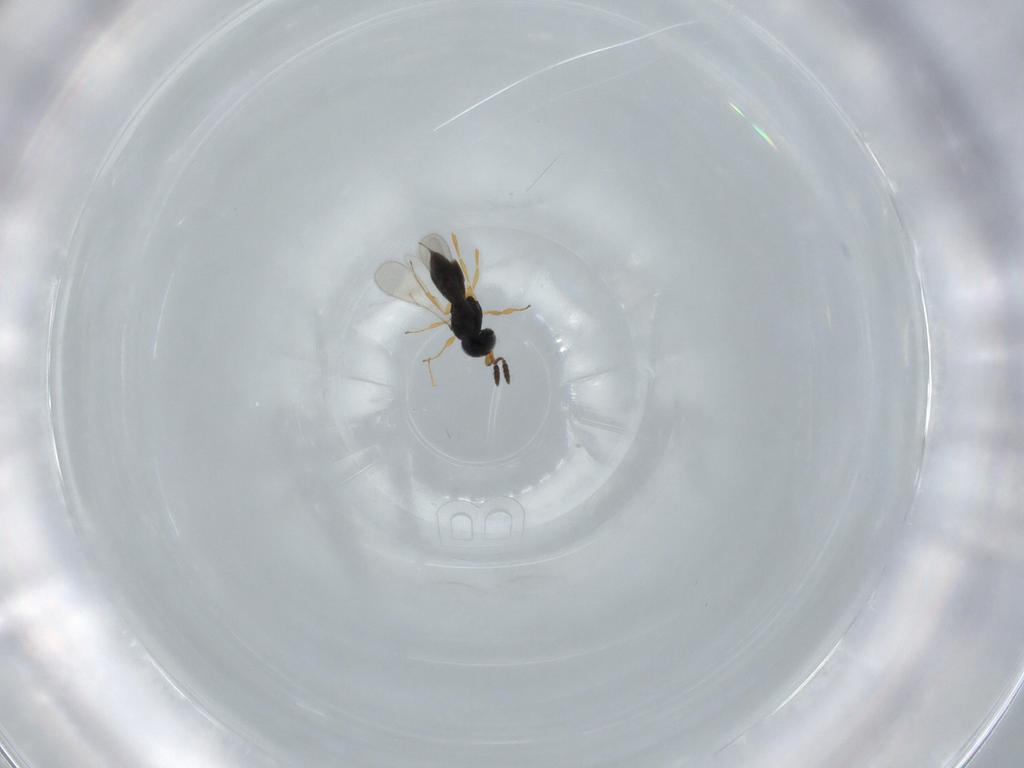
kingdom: Animalia
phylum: Arthropoda
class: Insecta
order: Hymenoptera
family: Scelionidae
